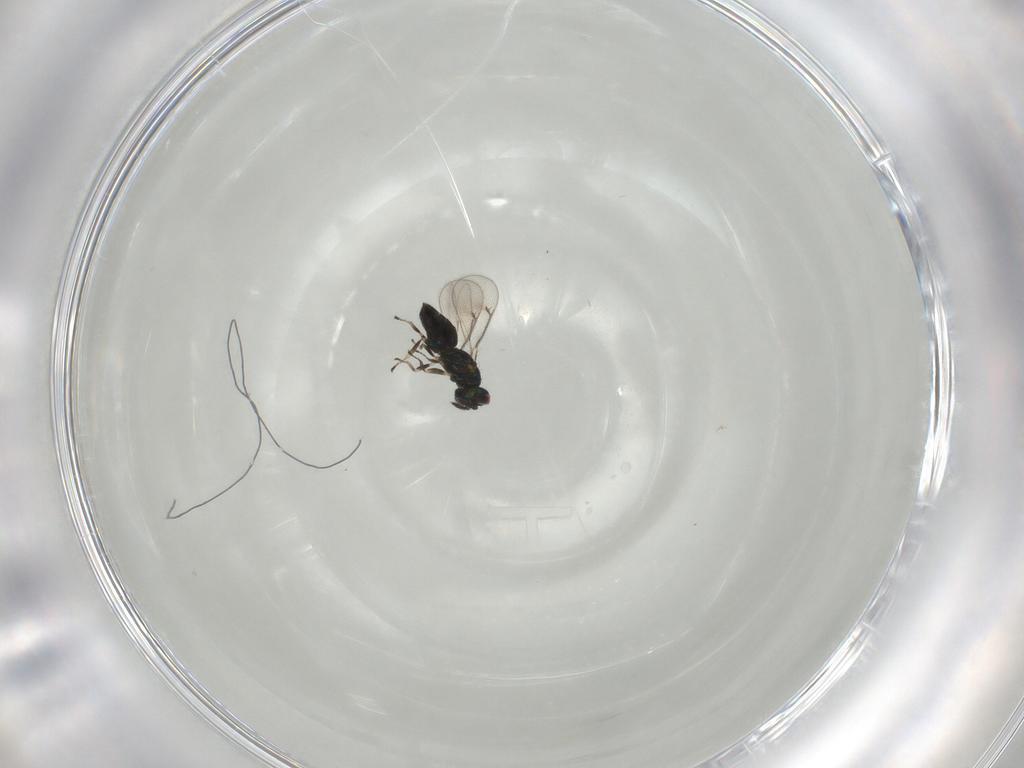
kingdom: Animalia
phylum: Arthropoda
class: Insecta
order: Hymenoptera
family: Eulophidae
